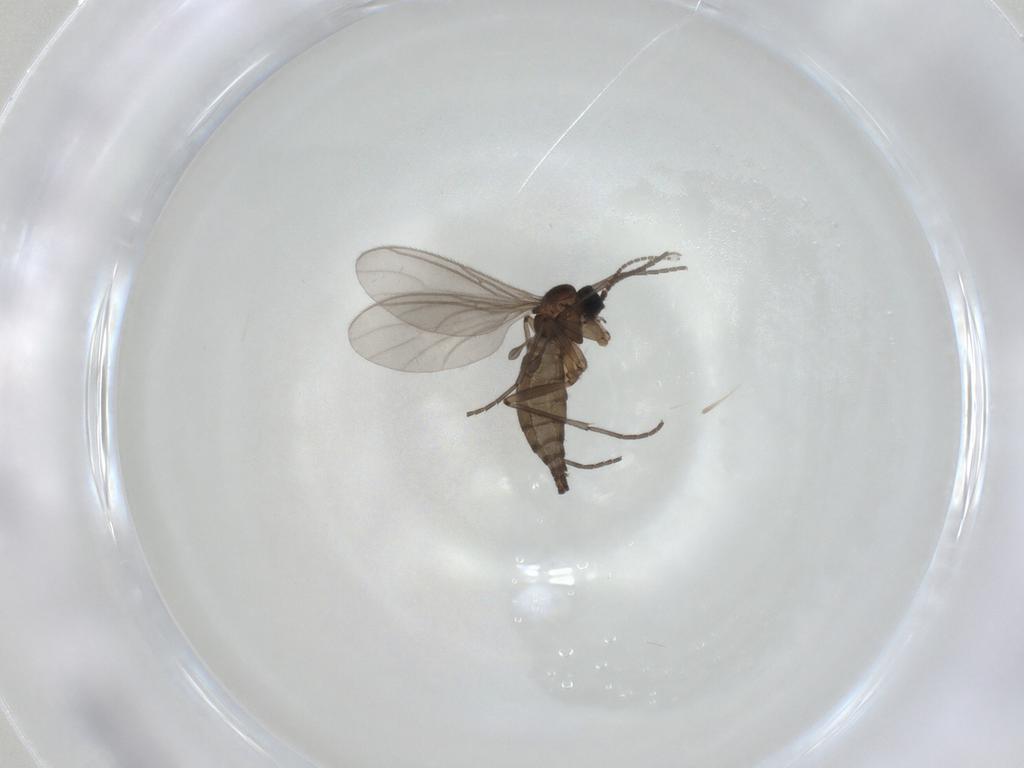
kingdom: Animalia
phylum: Arthropoda
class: Insecta
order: Diptera
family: Sciaridae
